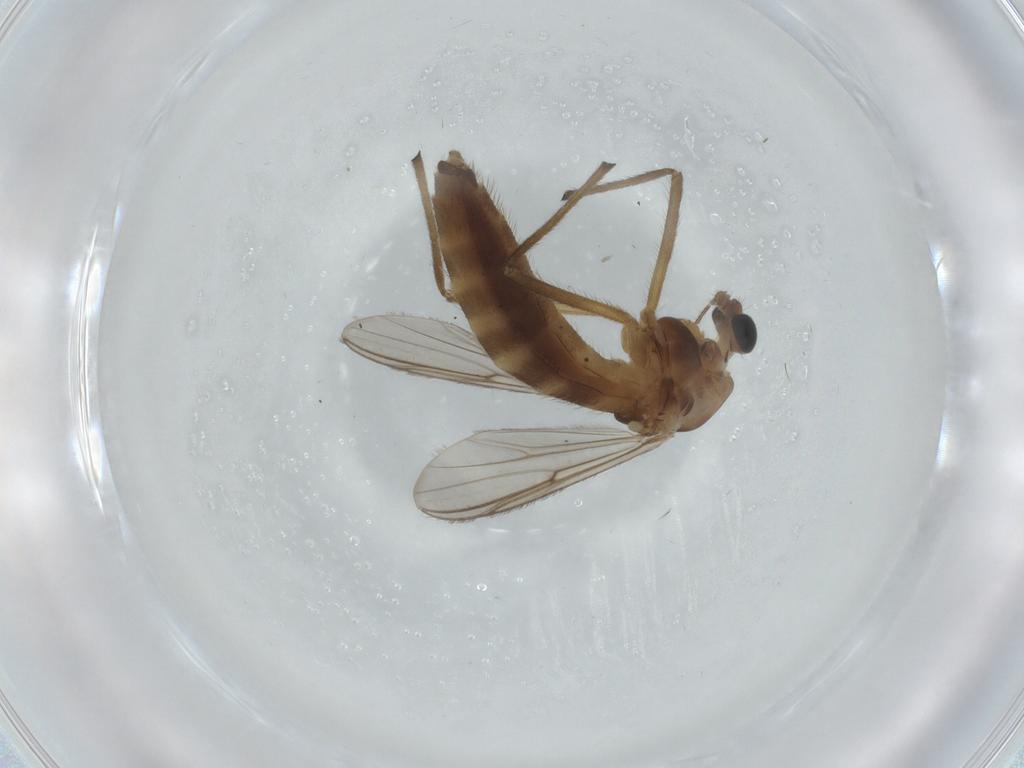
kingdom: Animalia
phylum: Arthropoda
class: Insecta
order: Diptera
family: Chironomidae
